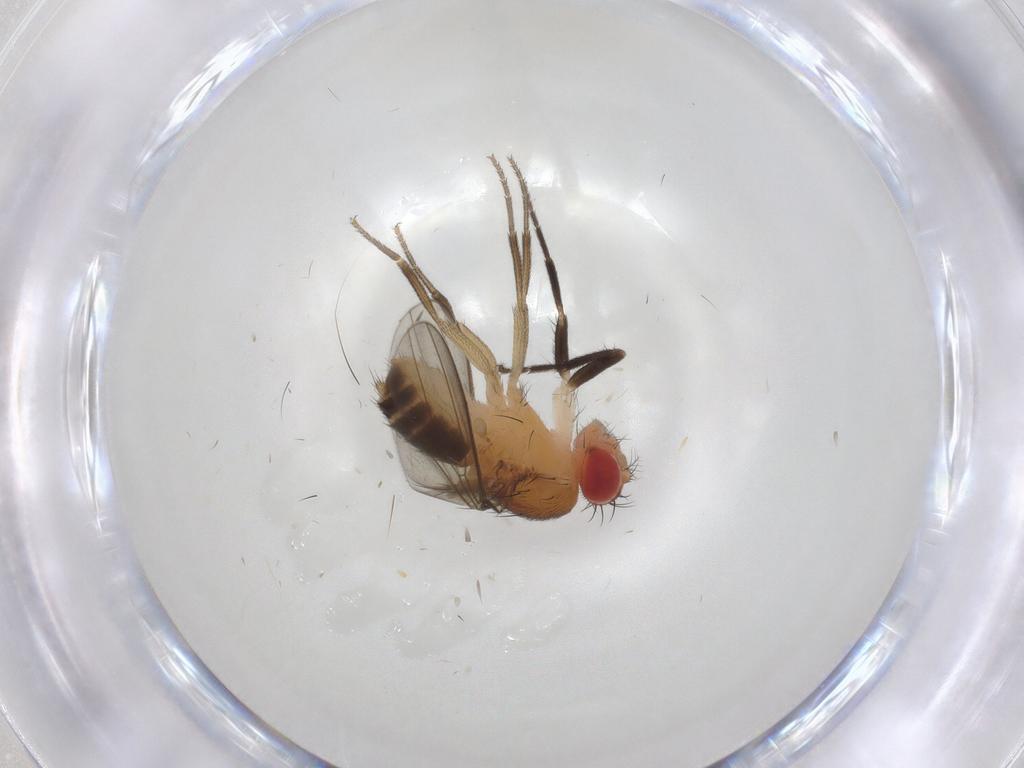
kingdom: Animalia
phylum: Arthropoda
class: Insecta
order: Diptera
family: Drosophilidae
